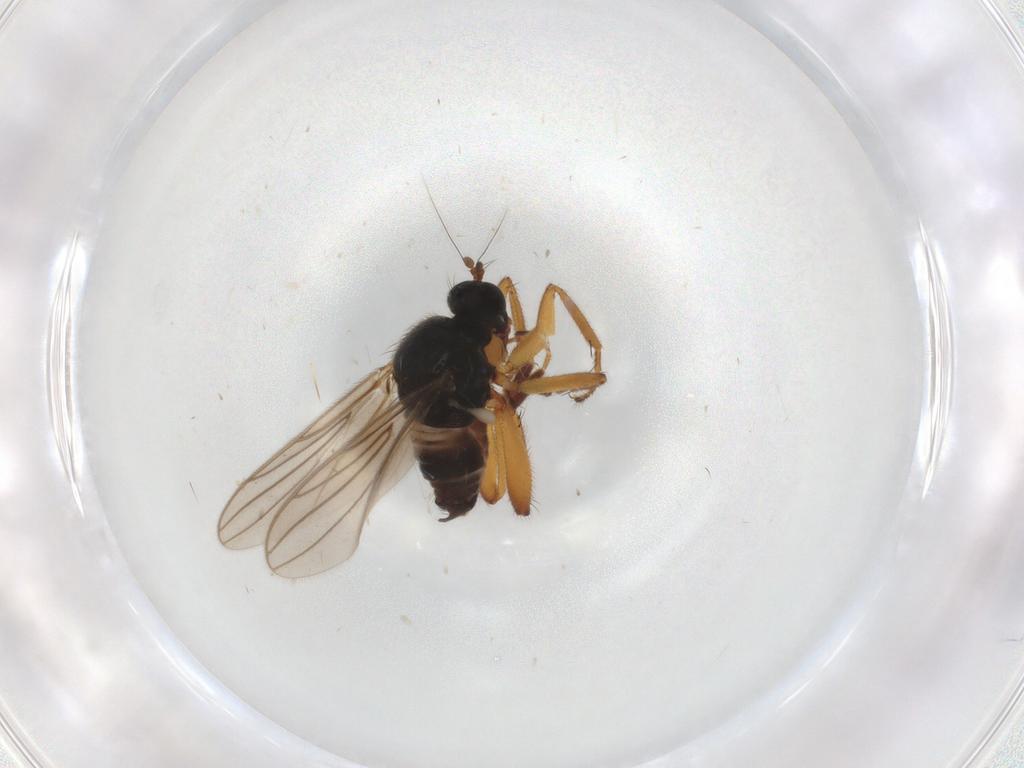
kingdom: Animalia
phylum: Arthropoda
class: Insecta
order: Diptera
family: Hybotidae
